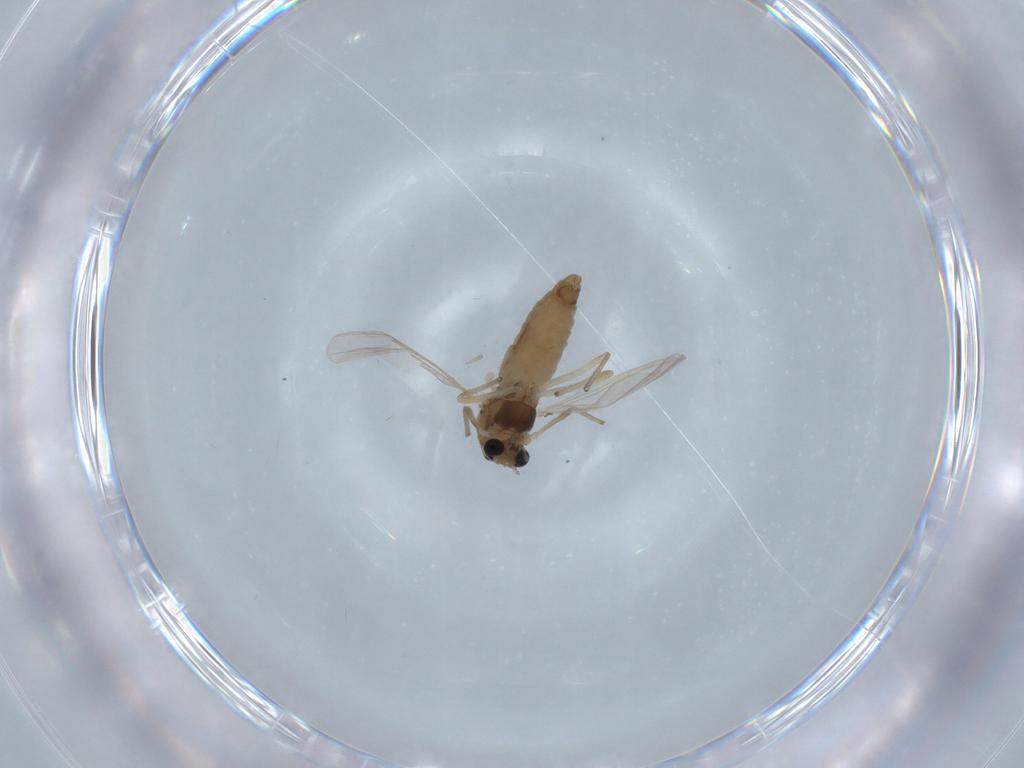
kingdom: Animalia
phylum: Arthropoda
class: Insecta
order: Diptera
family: Chironomidae
